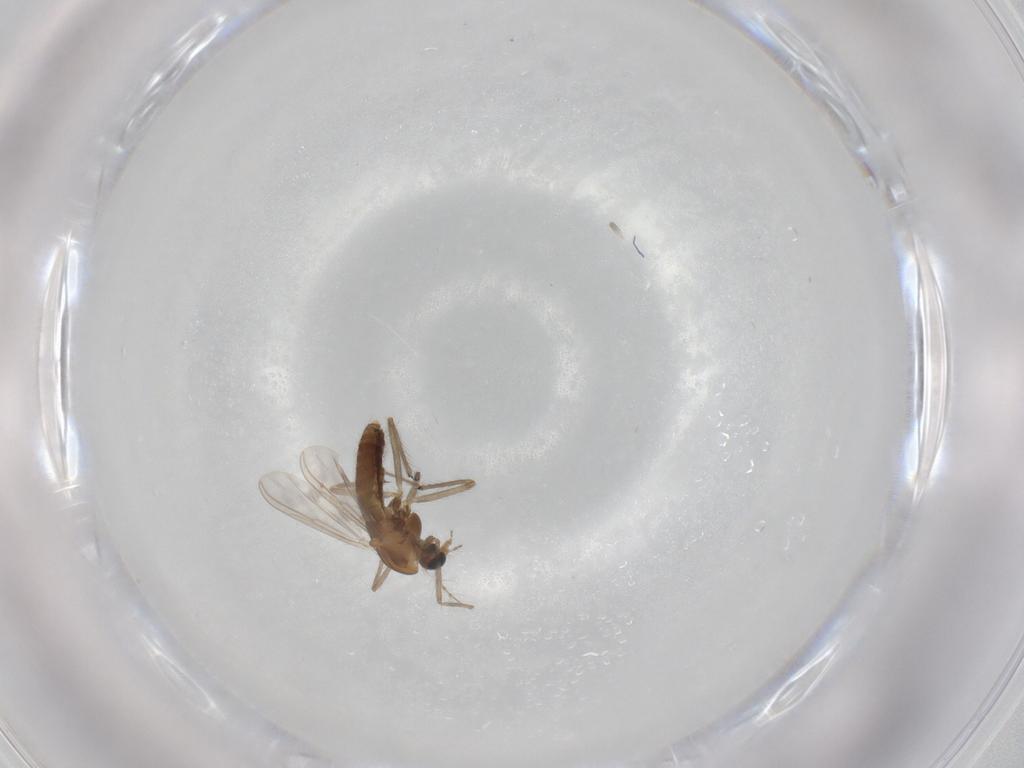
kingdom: Animalia
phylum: Arthropoda
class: Insecta
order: Diptera
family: Chironomidae
